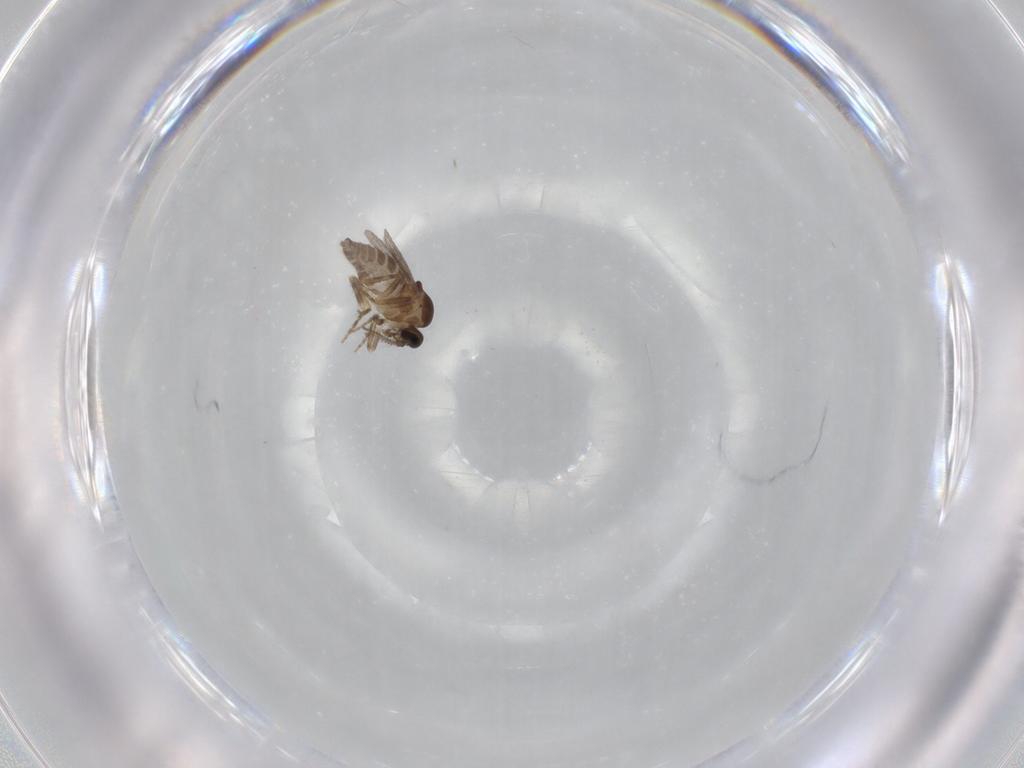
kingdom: Animalia
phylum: Arthropoda
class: Insecta
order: Diptera
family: Ceratopogonidae
